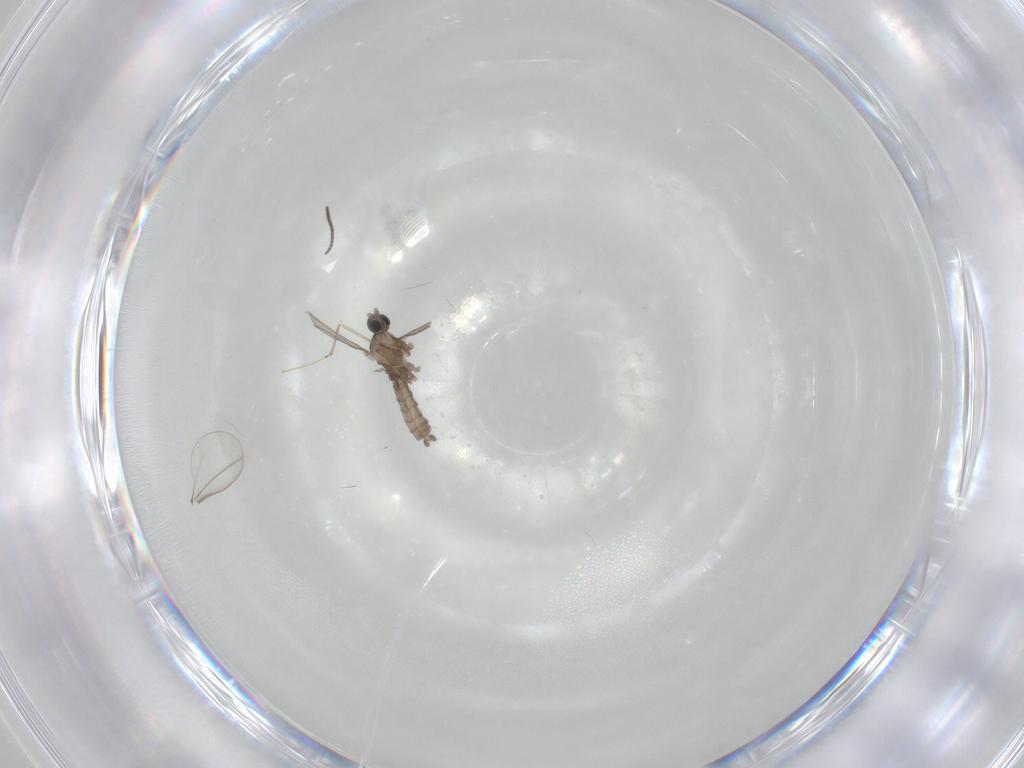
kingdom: Animalia
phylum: Arthropoda
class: Insecta
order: Diptera
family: Cecidomyiidae
